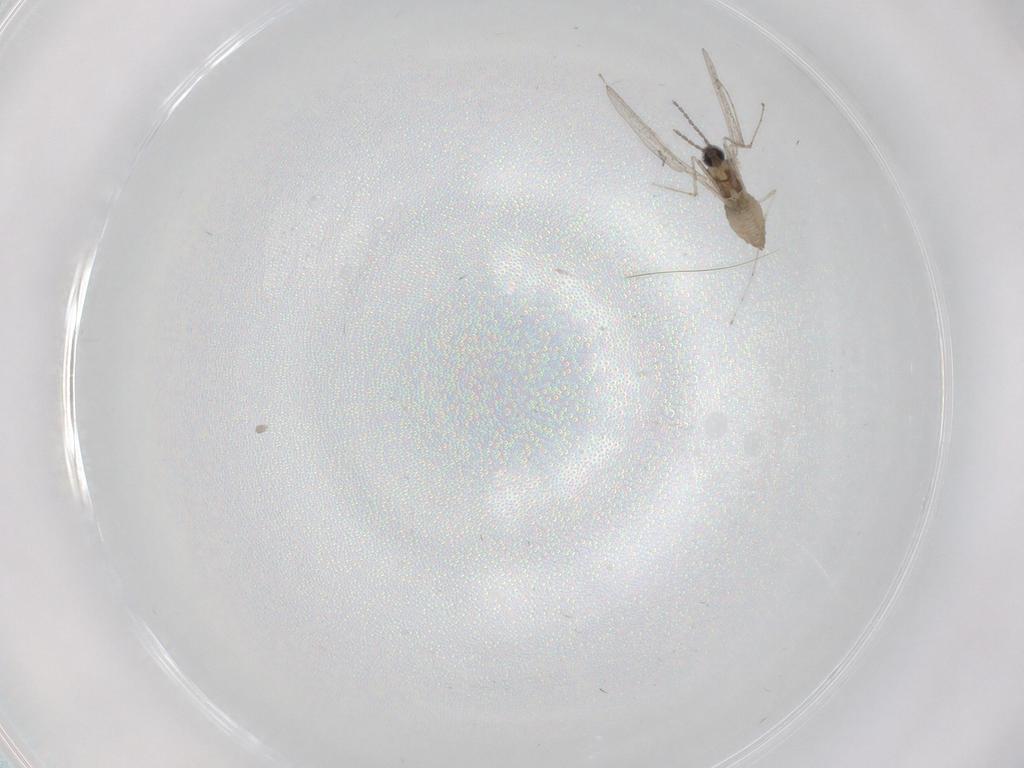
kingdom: Animalia
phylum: Arthropoda
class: Insecta
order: Diptera
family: Cecidomyiidae
